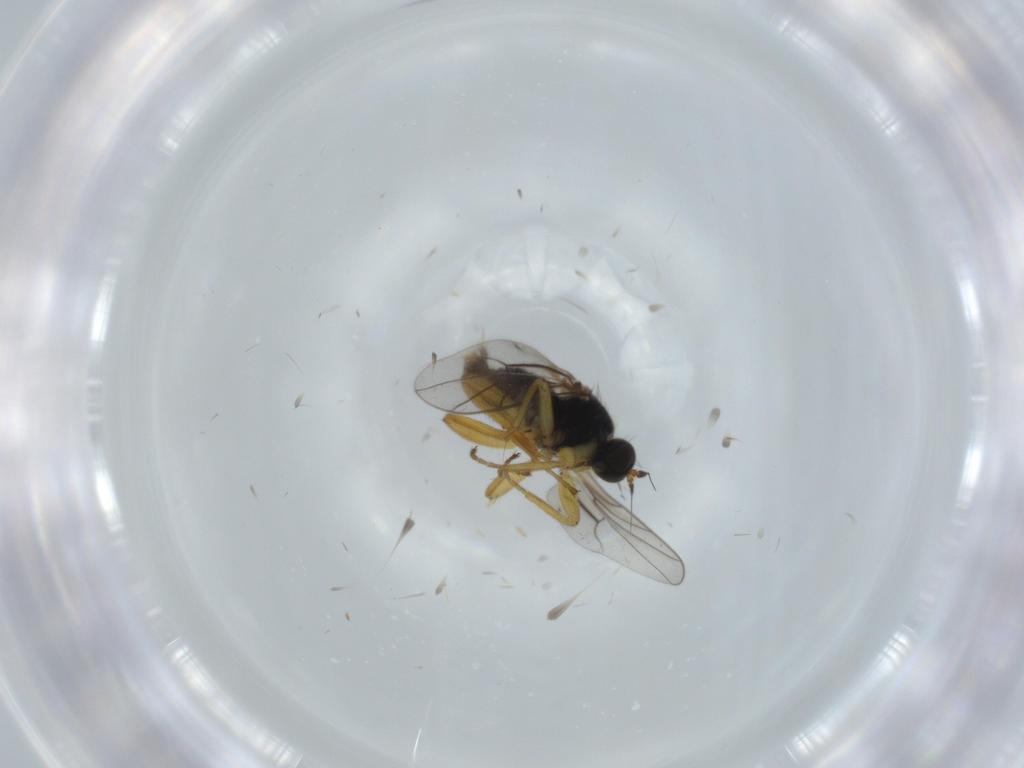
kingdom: Animalia
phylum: Arthropoda
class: Insecta
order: Diptera
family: Hybotidae
